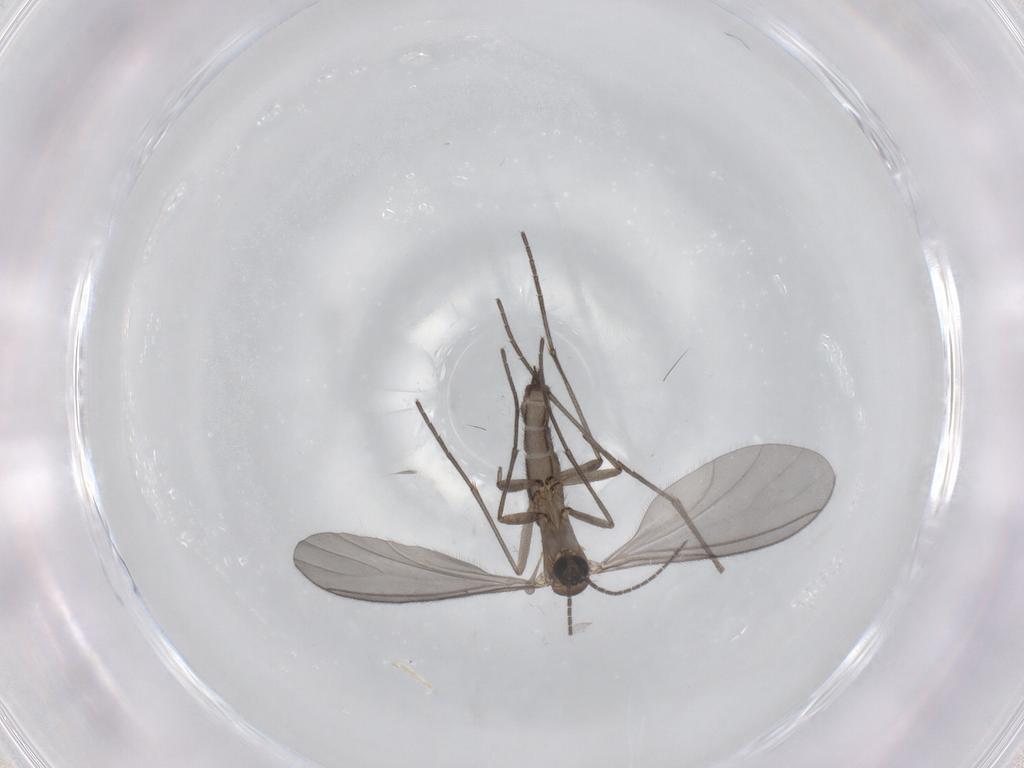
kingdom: Animalia
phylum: Arthropoda
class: Insecta
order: Diptera
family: Sciaridae
